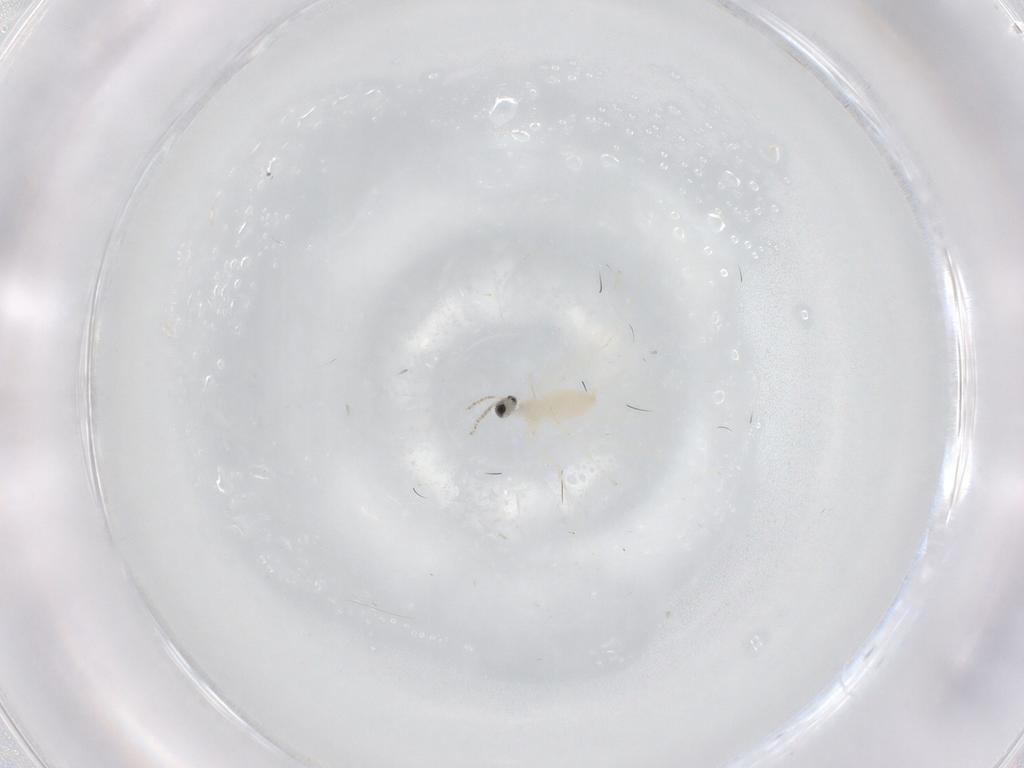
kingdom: Animalia
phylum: Arthropoda
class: Insecta
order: Diptera
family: Cecidomyiidae
